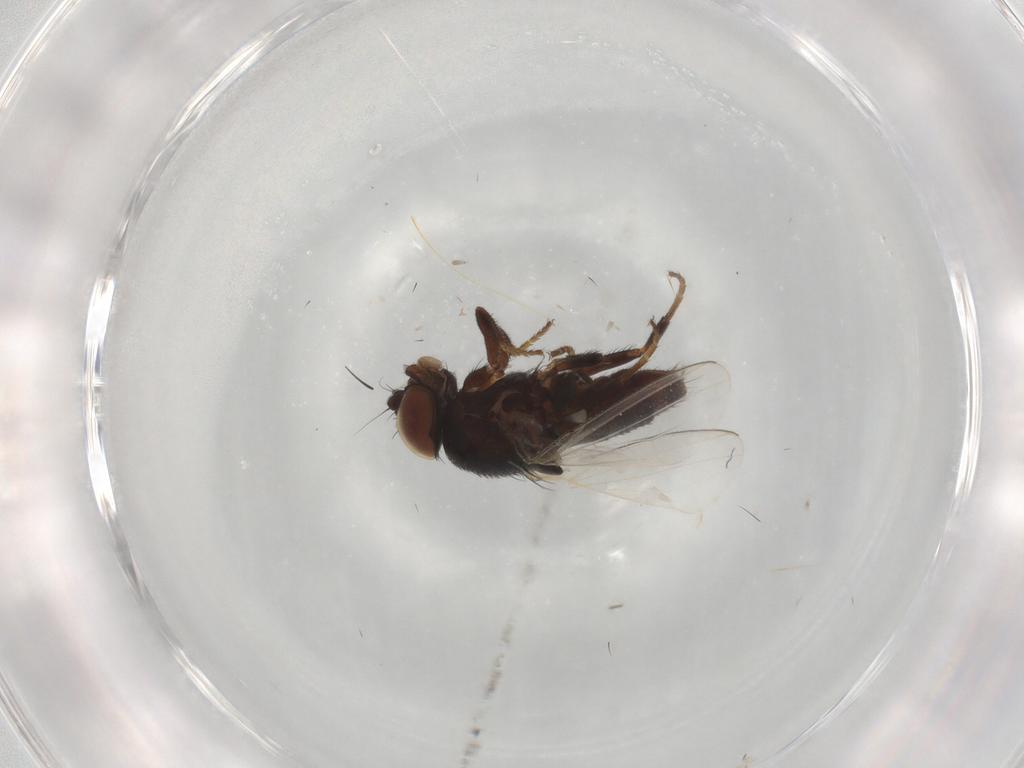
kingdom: Animalia
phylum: Arthropoda
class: Insecta
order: Diptera
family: Milichiidae
